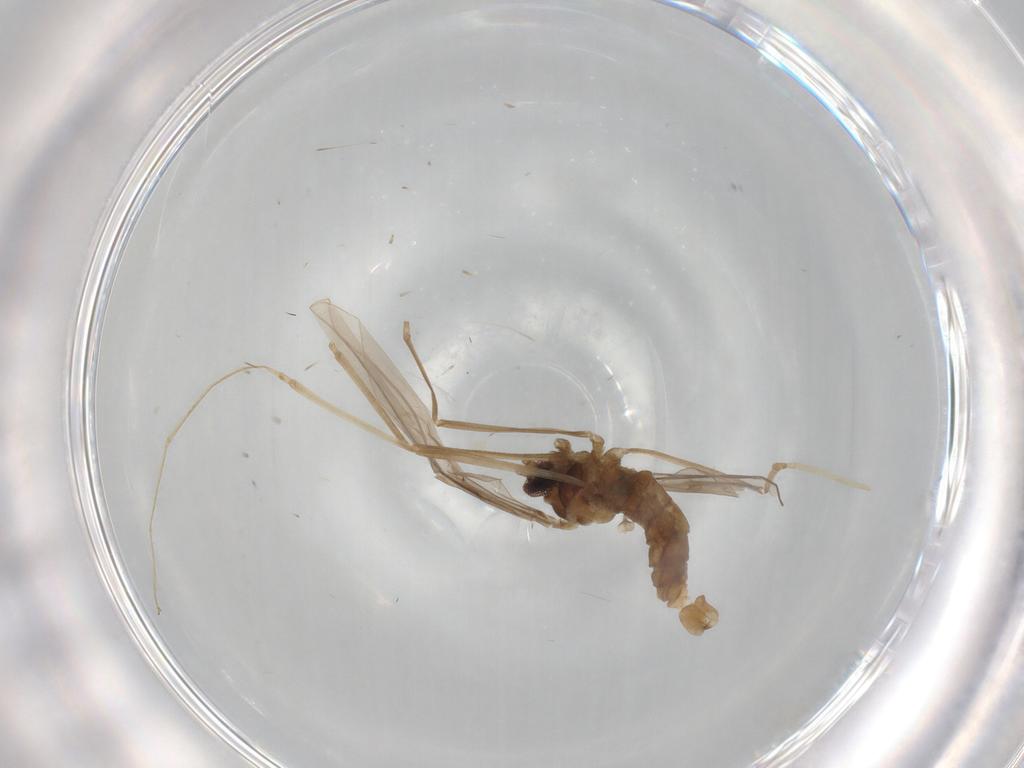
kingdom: Animalia
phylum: Arthropoda
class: Insecta
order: Diptera
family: Cecidomyiidae
